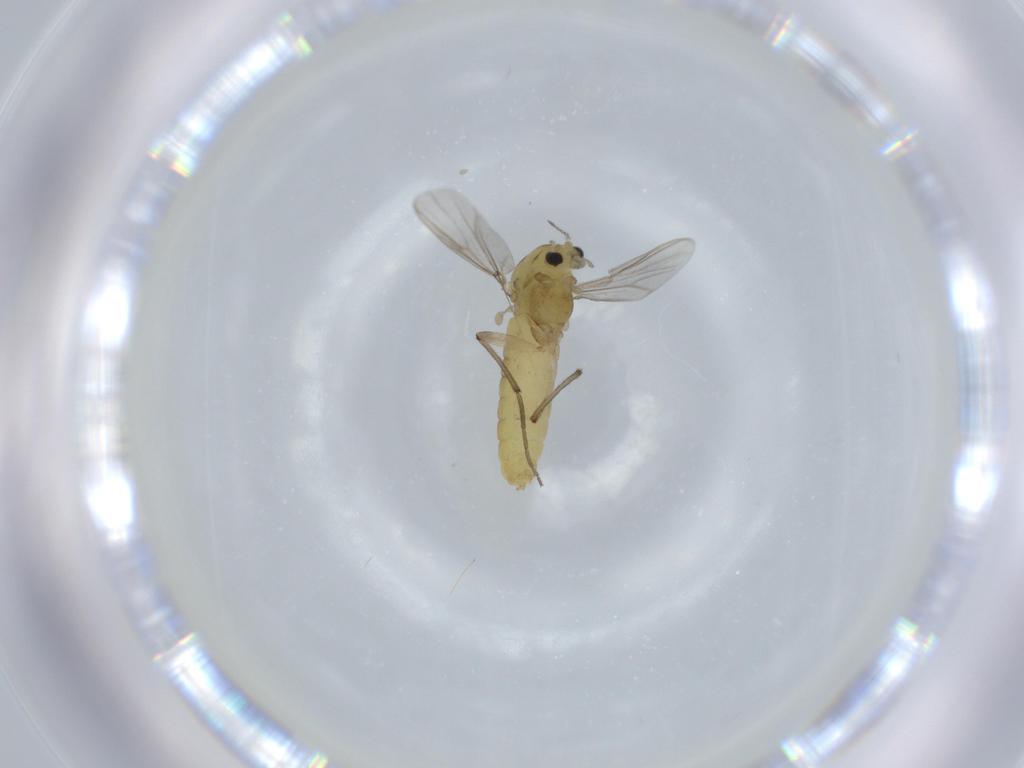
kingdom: Animalia
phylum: Arthropoda
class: Insecta
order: Diptera
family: Chironomidae
